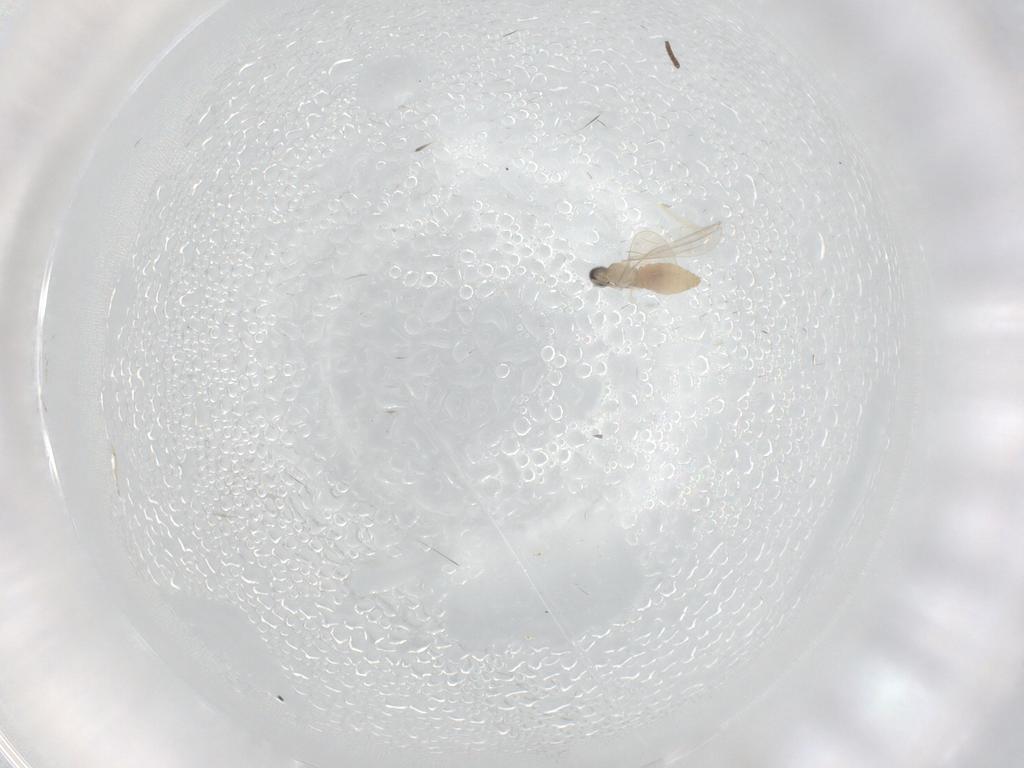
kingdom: Animalia
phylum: Arthropoda
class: Insecta
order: Diptera
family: Cecidomyiidae
